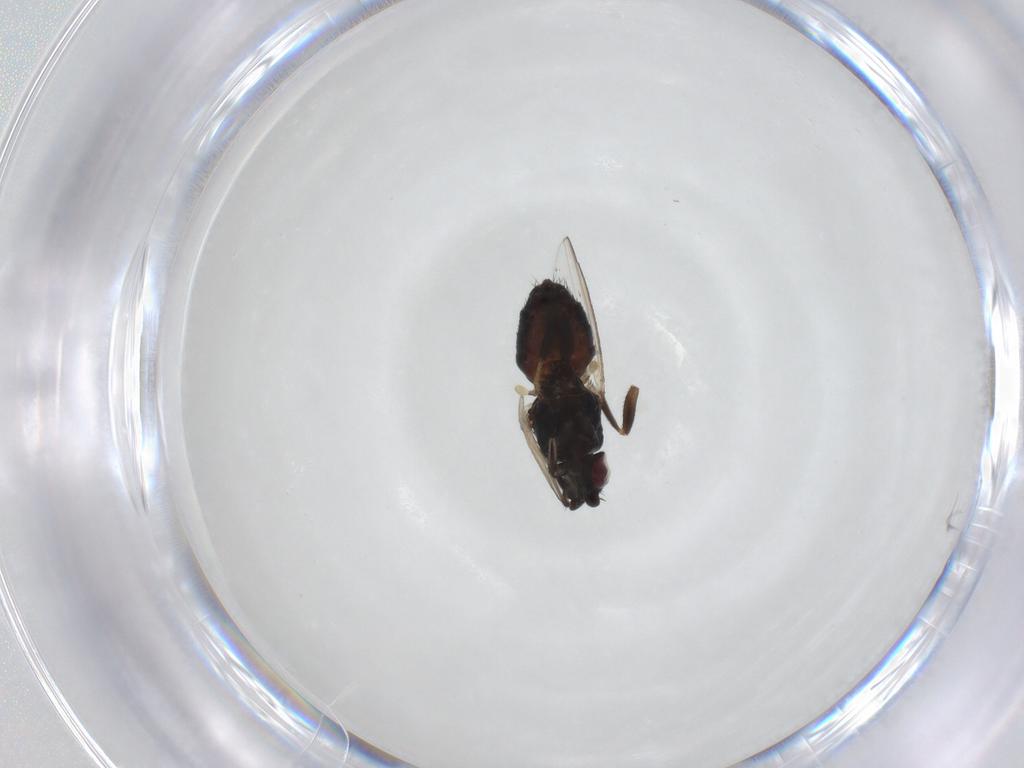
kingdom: Animalia
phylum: Arthropoda
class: Insecta
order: Diptera
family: Milichiidae
